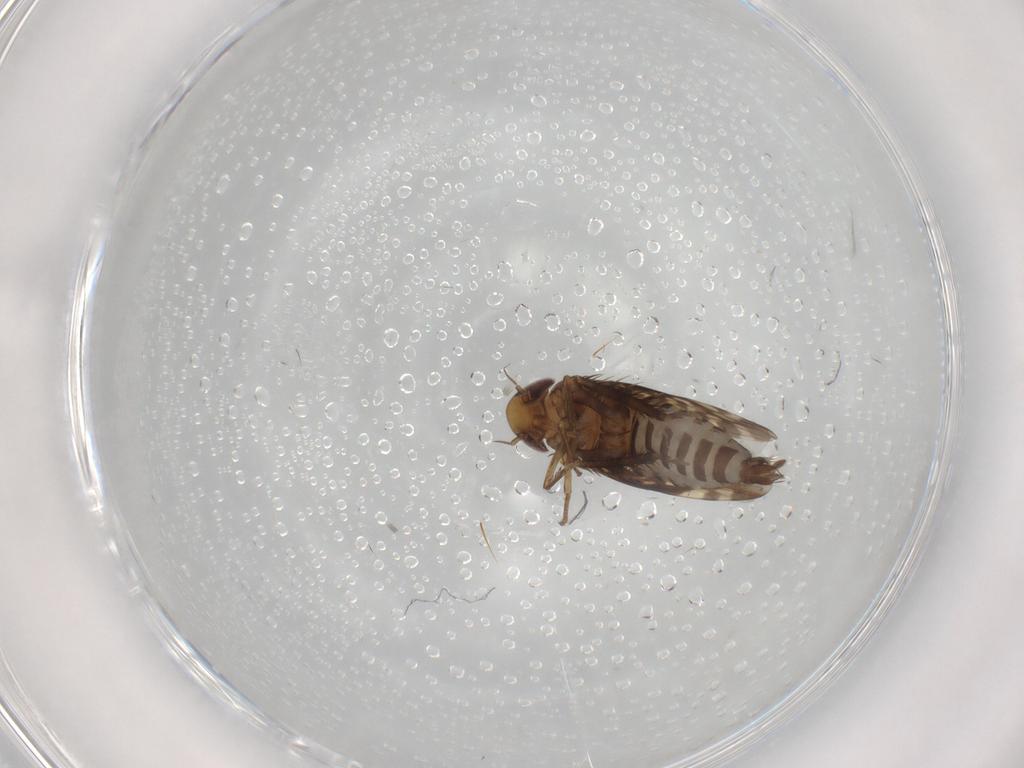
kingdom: Animalia
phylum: Arthropoda
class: Insecta
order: Hemiptera
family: Cicadellidae
